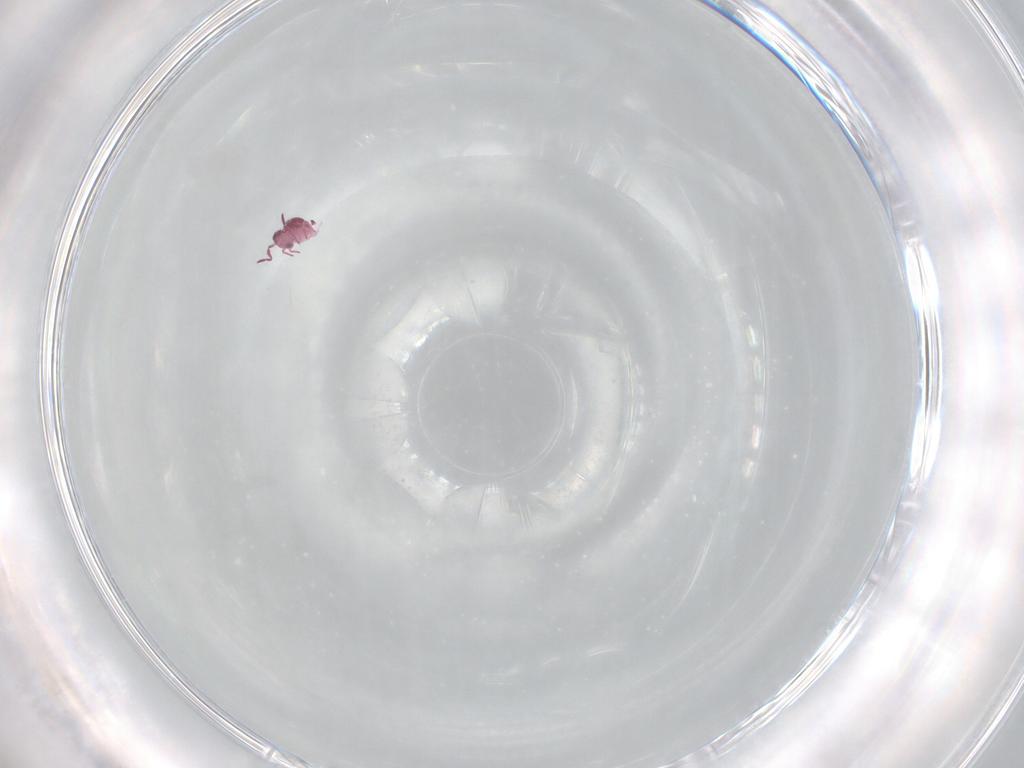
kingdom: Animalia
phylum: Arthropoda
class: Collembola
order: Symphypleona
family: Sminthurididae
